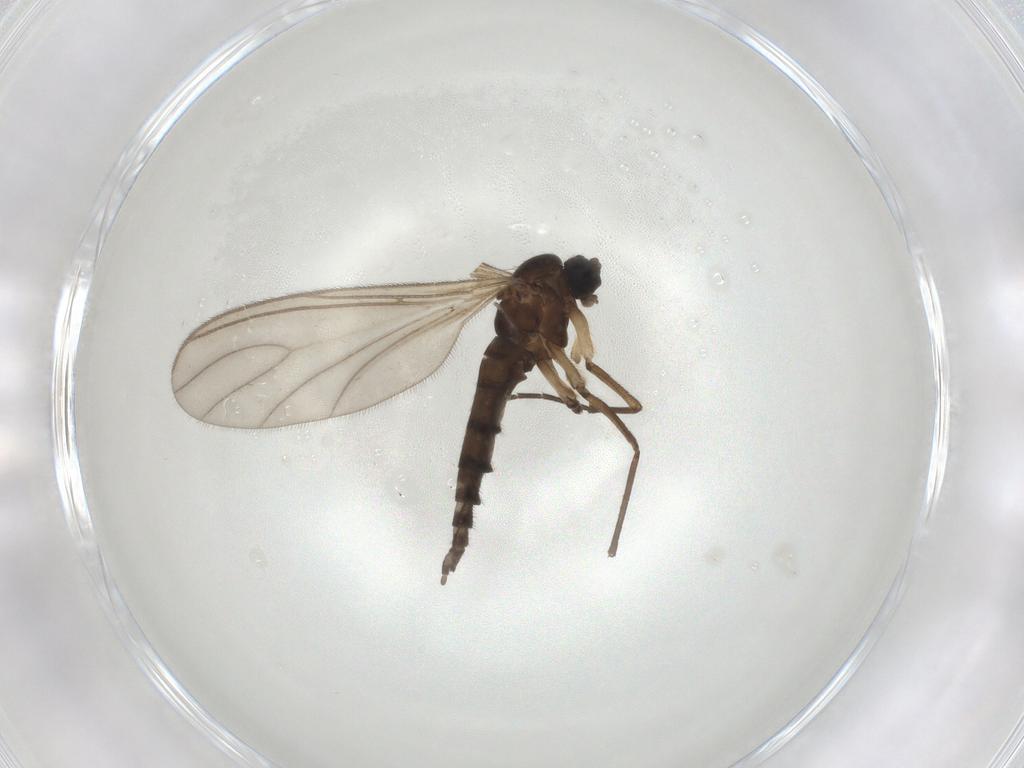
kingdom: Animalia
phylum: Arthropoda
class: Insecta
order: Diptera
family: Sciaridae
